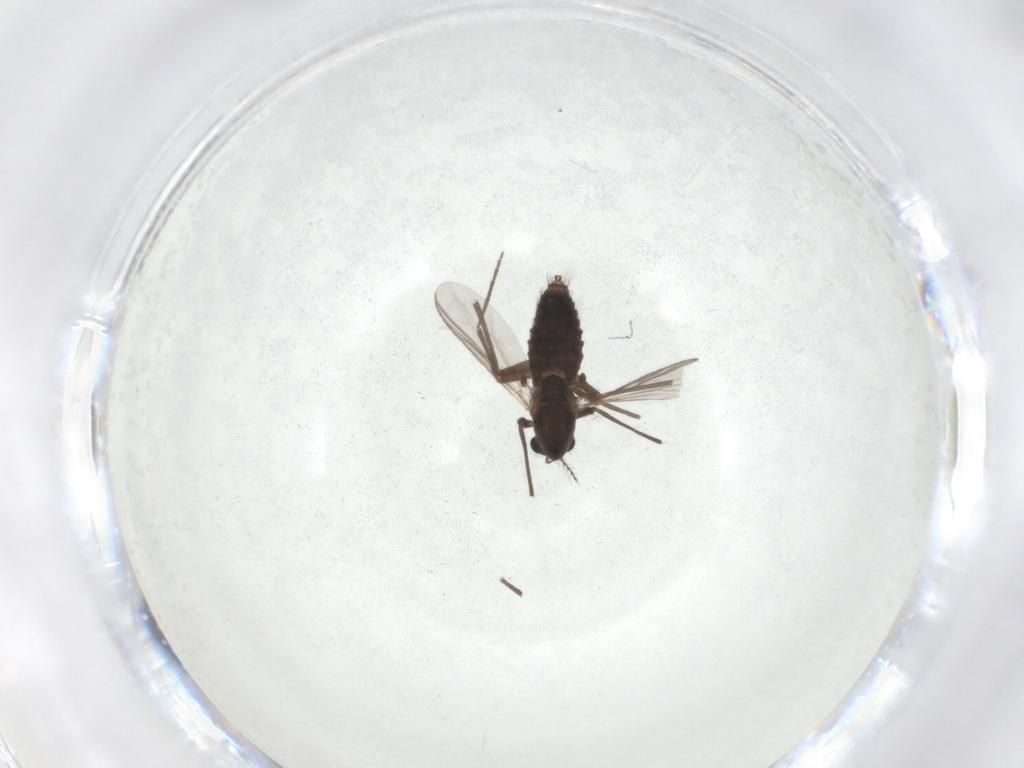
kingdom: Animalia
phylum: Arthropoda
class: Insecta
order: Diptera
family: Chironomidae
